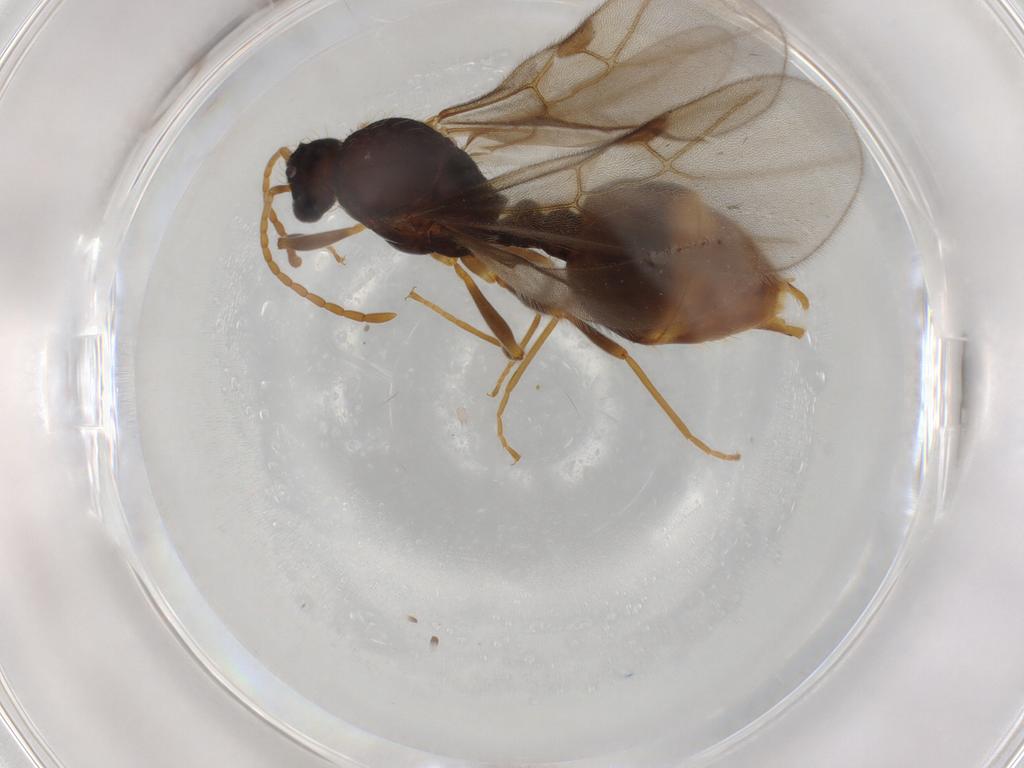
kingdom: Animalia
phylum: Arthropoda
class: Insecta
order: Hymenoptera
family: Formicidae
